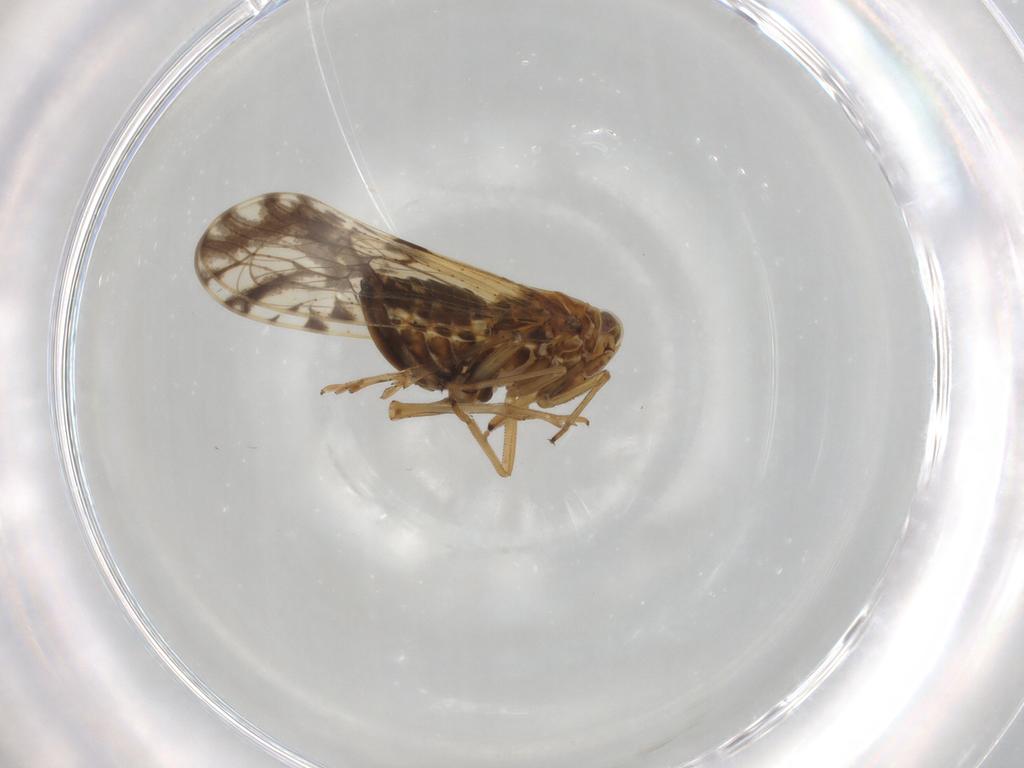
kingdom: Animalia
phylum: Arthropoda
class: Insecta
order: Hemiptera
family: Delphacidae
